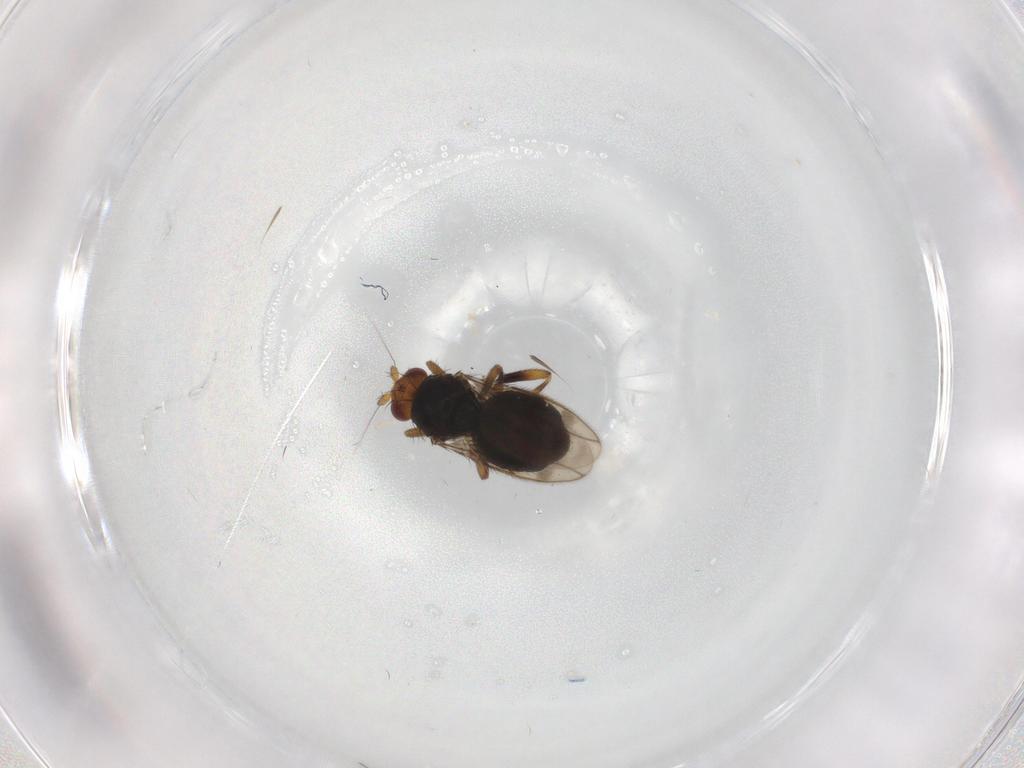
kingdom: Animalia
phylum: Arthropoda
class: Insecta
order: Diptera
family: Sphaeroceridae
